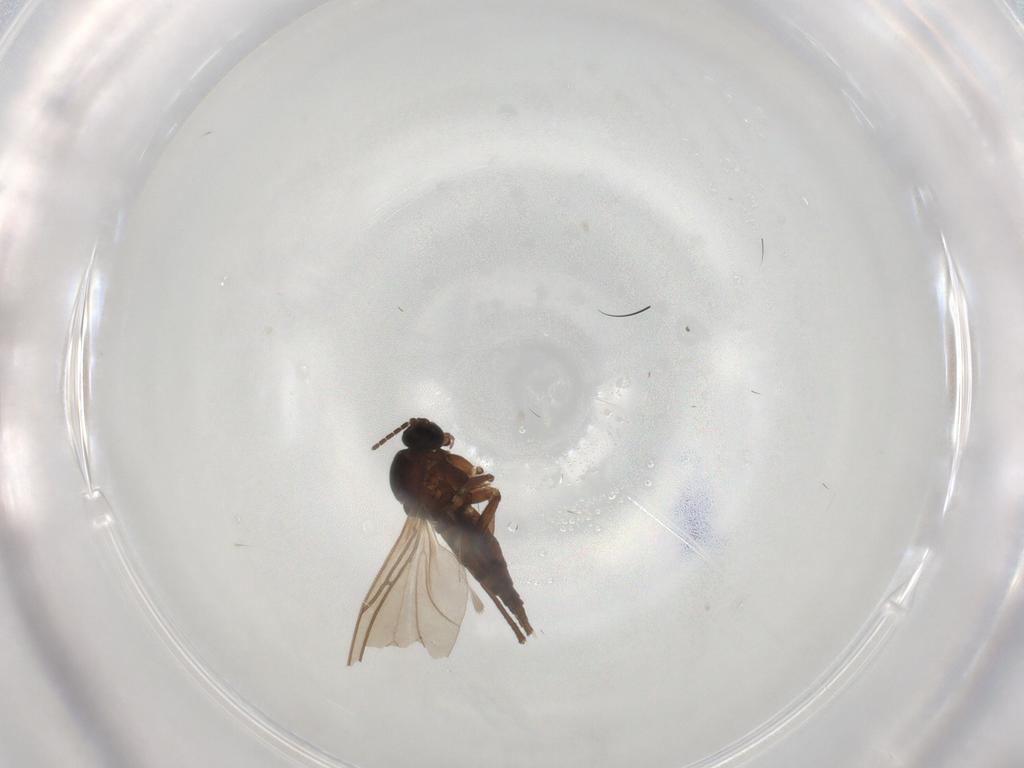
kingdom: Animalia
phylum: Arthropoda
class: Insecta
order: Diptera
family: Sciaridae
